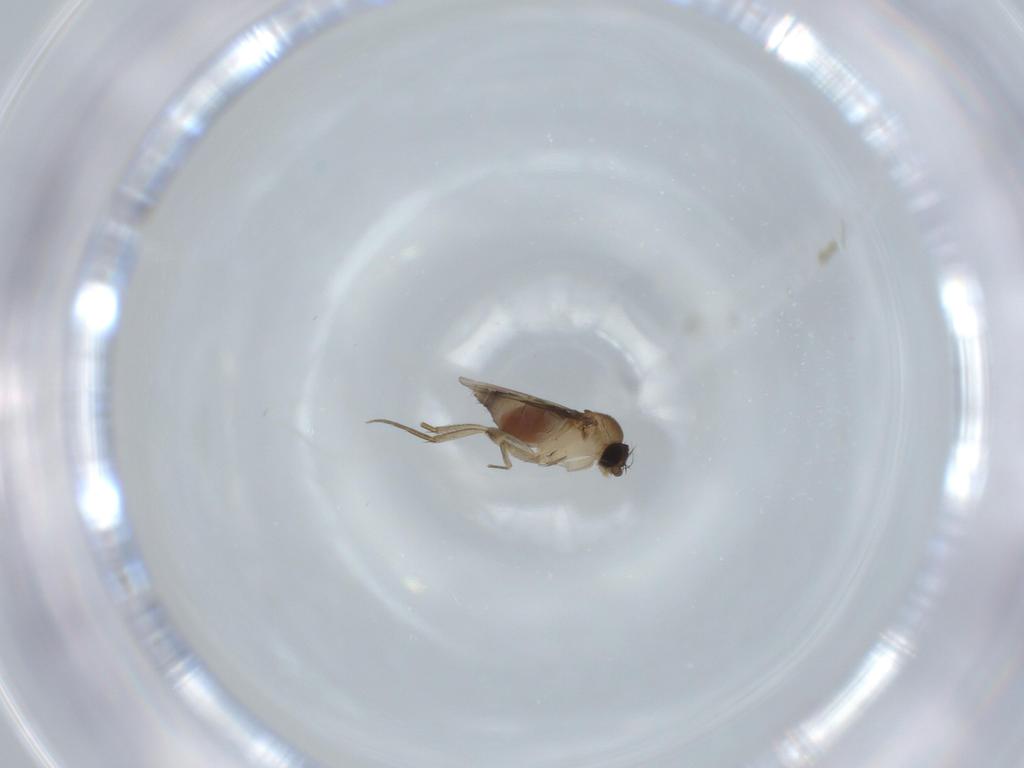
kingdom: Animalia
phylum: Arthropoda
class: Insecta
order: Diptera
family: Phoridae
